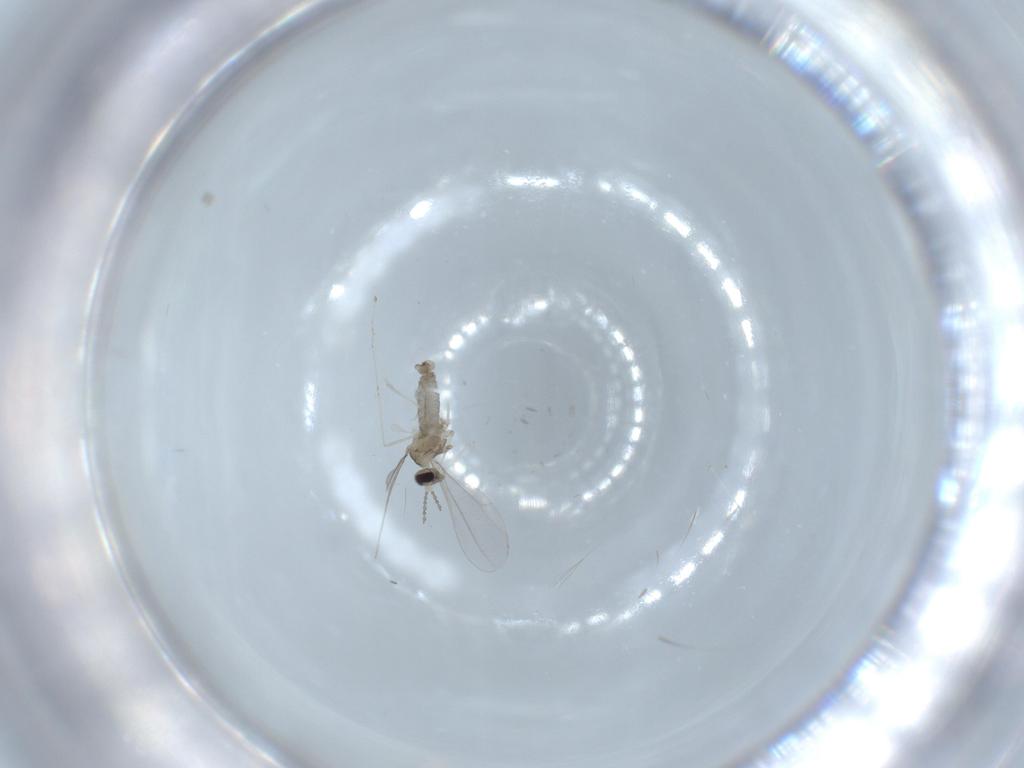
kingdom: Animalia
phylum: Arthropoda
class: Insecta
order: Diptera
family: Cecidomyiidae
